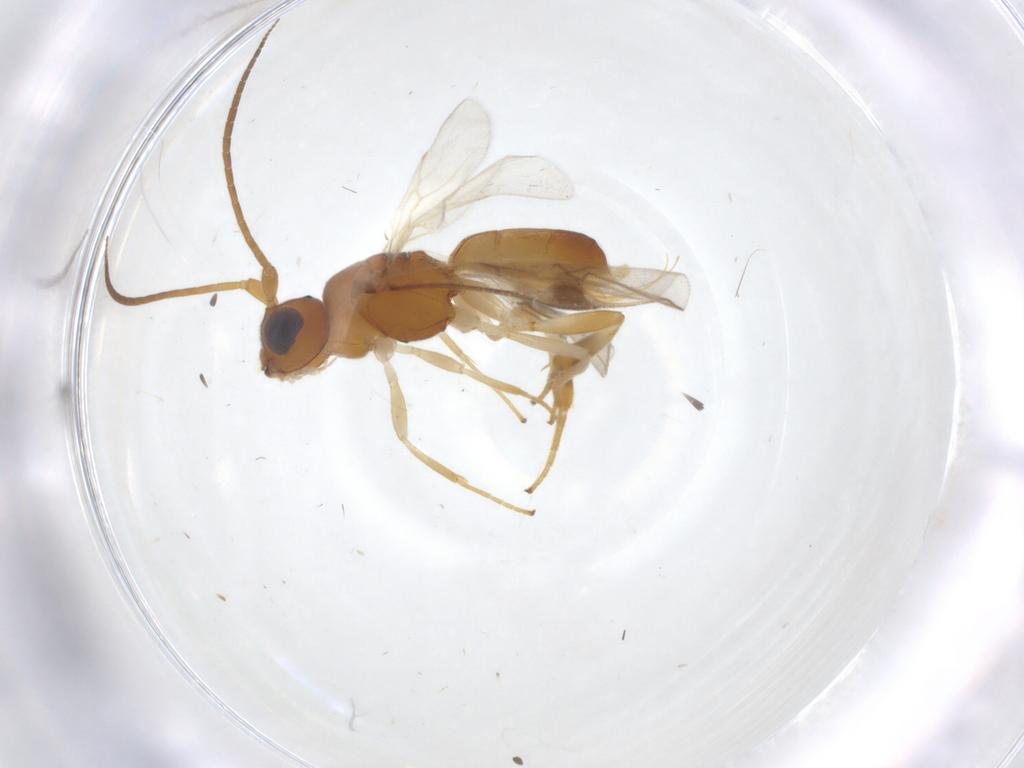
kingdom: Animalia
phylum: Arthropoda
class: Insecta
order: Hymenoptera
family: Braconidae
